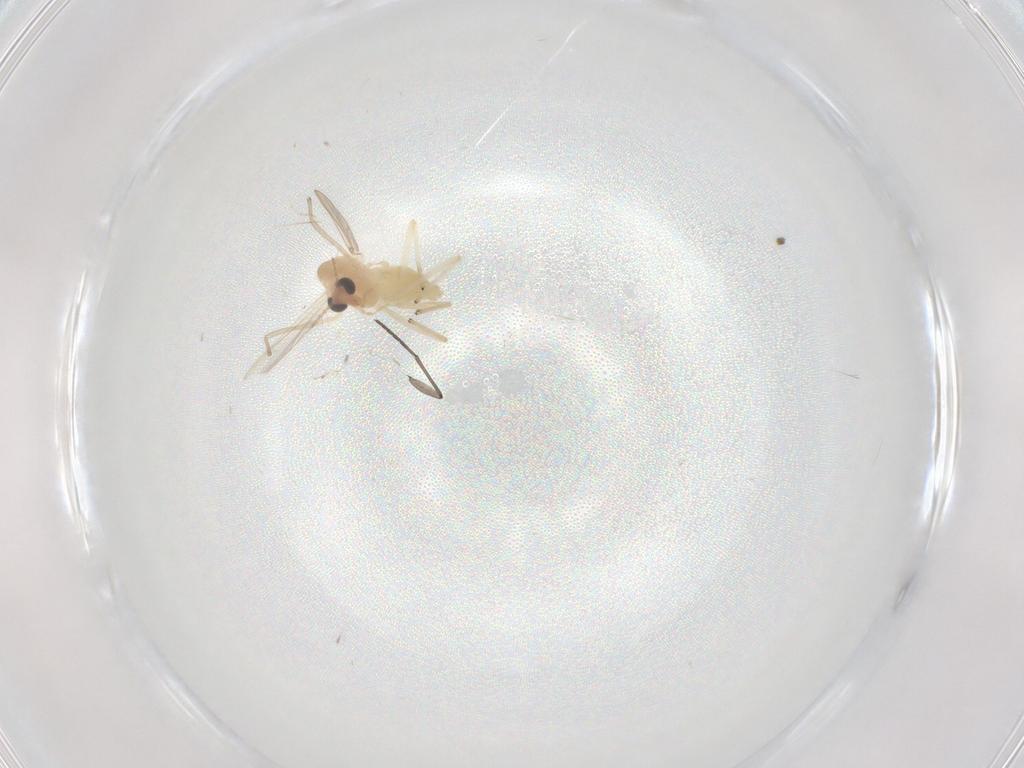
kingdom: Animalia
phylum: Arthropoda
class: Insecta
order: Diptera
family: Chironomidae
